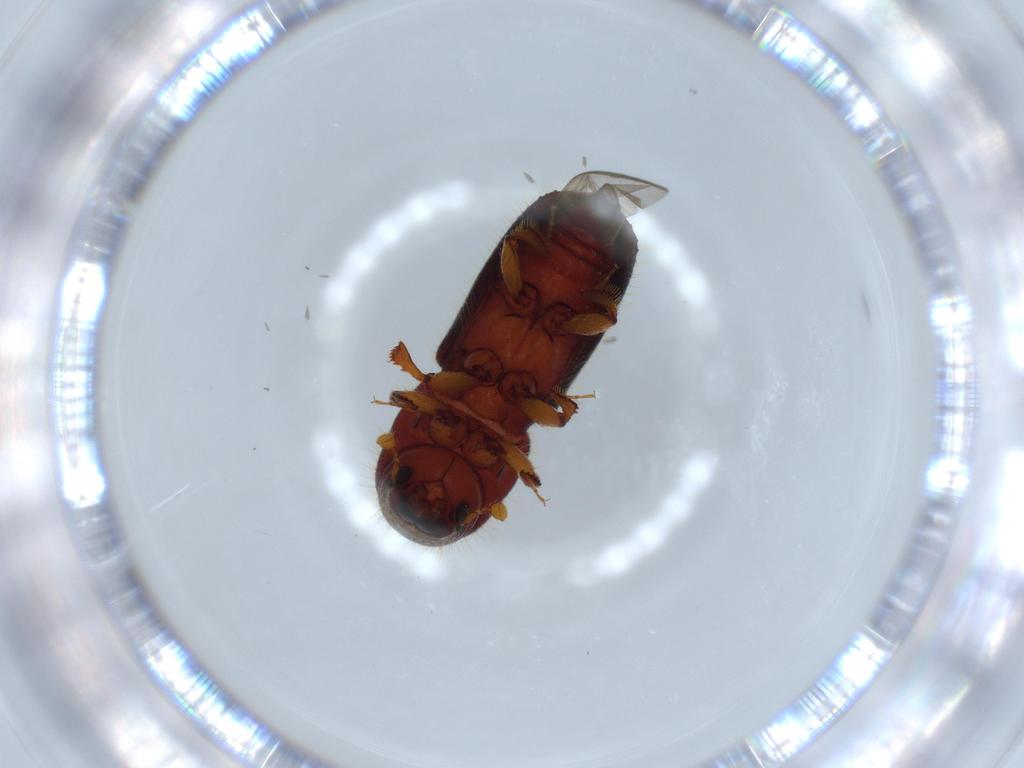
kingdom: Animalia
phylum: Arthropoda
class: Insecta
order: Coleoptera
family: Curculionidae
